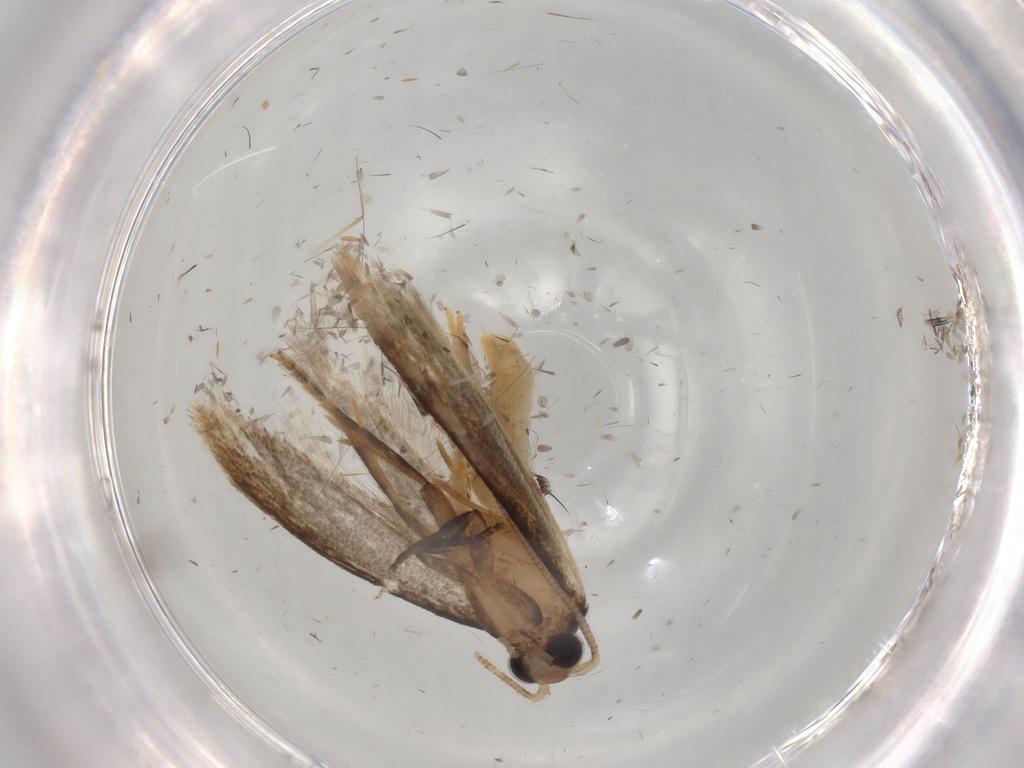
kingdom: Animalia
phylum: Arthropoda
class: Insecta
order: Lepidoptera
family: Tineidae
